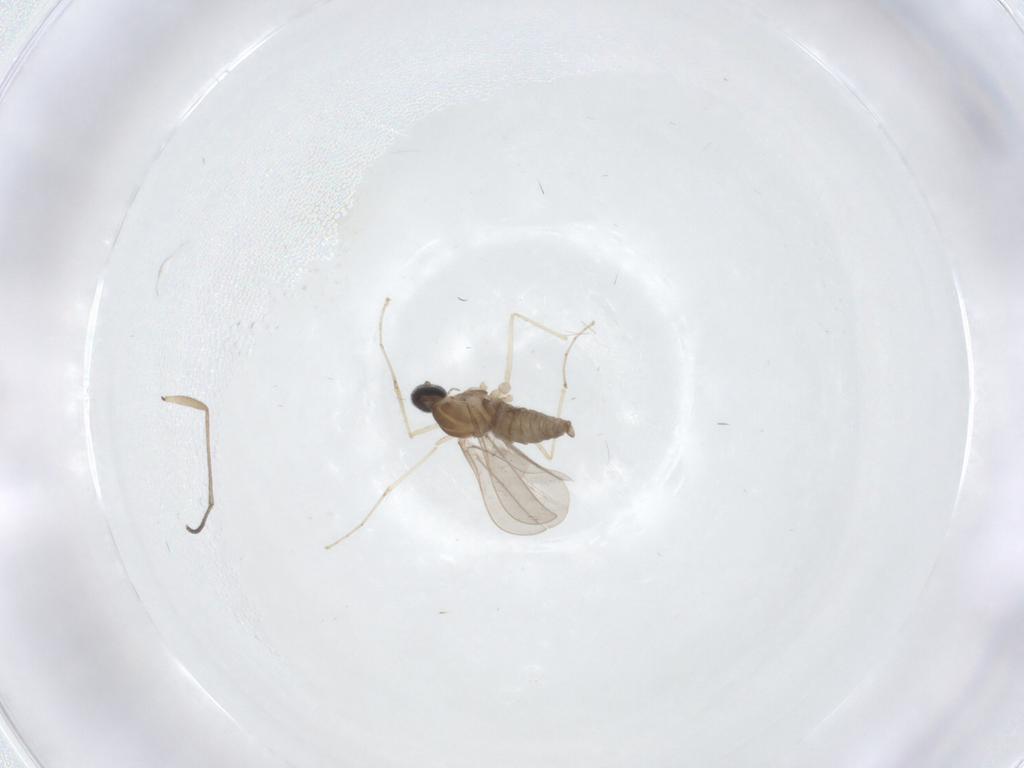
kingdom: Animalia
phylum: Arthropoda
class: Insecta
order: Diptera
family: Cecidomyiidae
